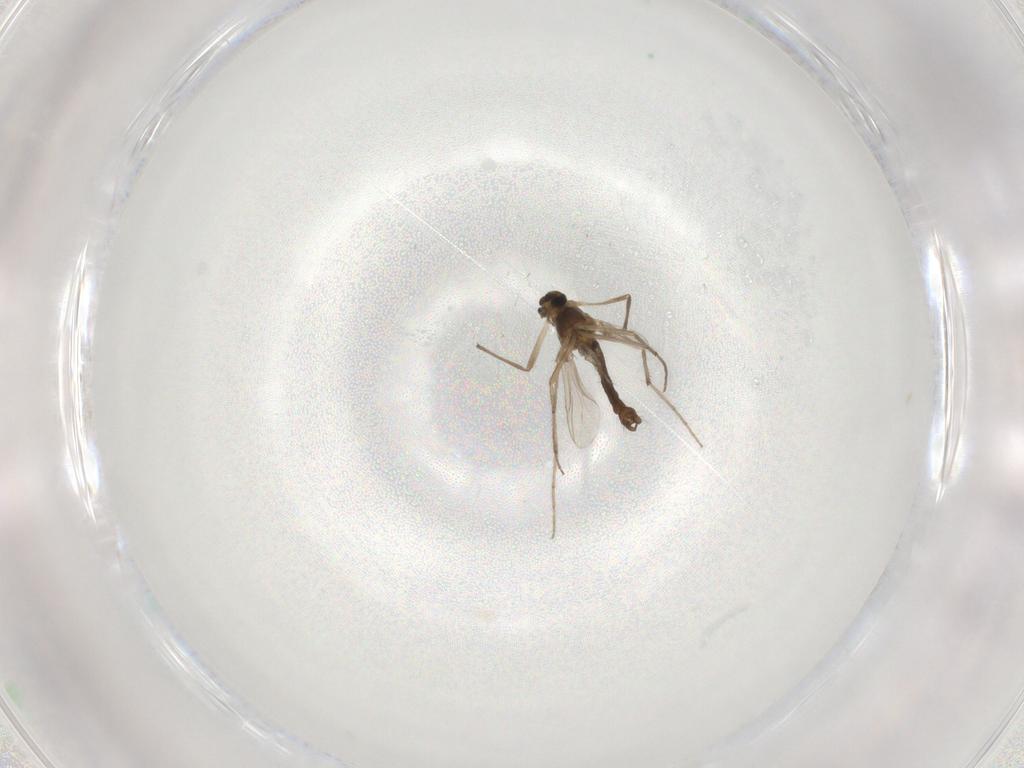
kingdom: Animalia
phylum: Arthropoda
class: Insecta
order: Diptera
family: Chironomidae
